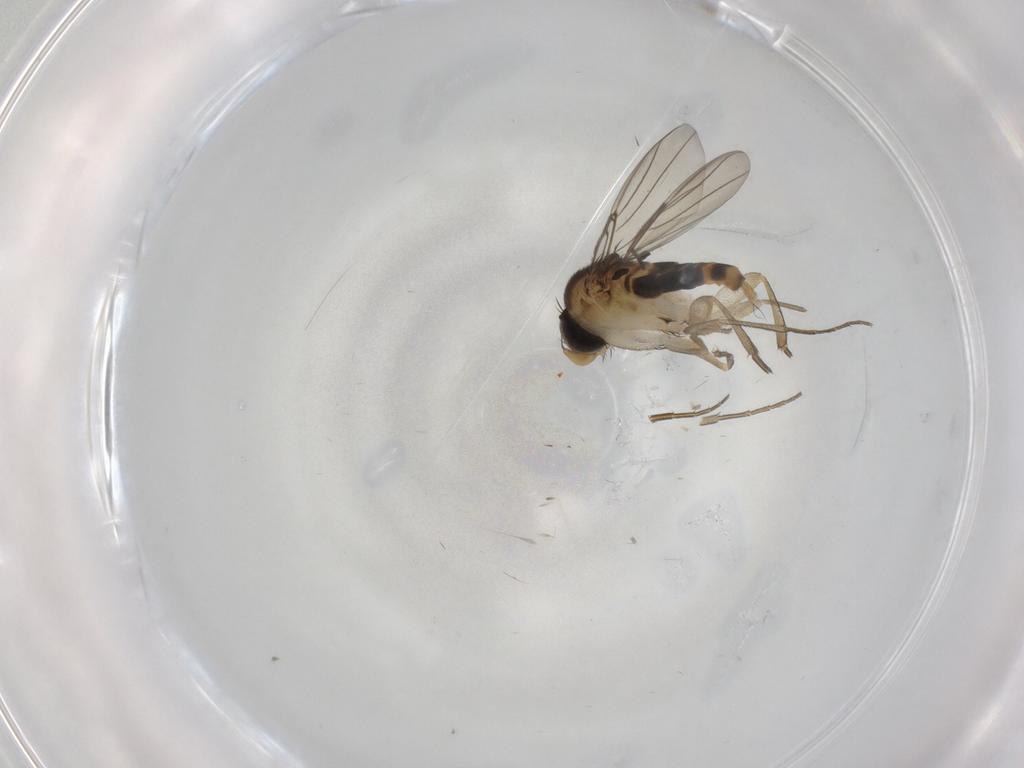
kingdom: Animalia
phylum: Arthropoda
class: Insecta
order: Diptera
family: Phoridae
